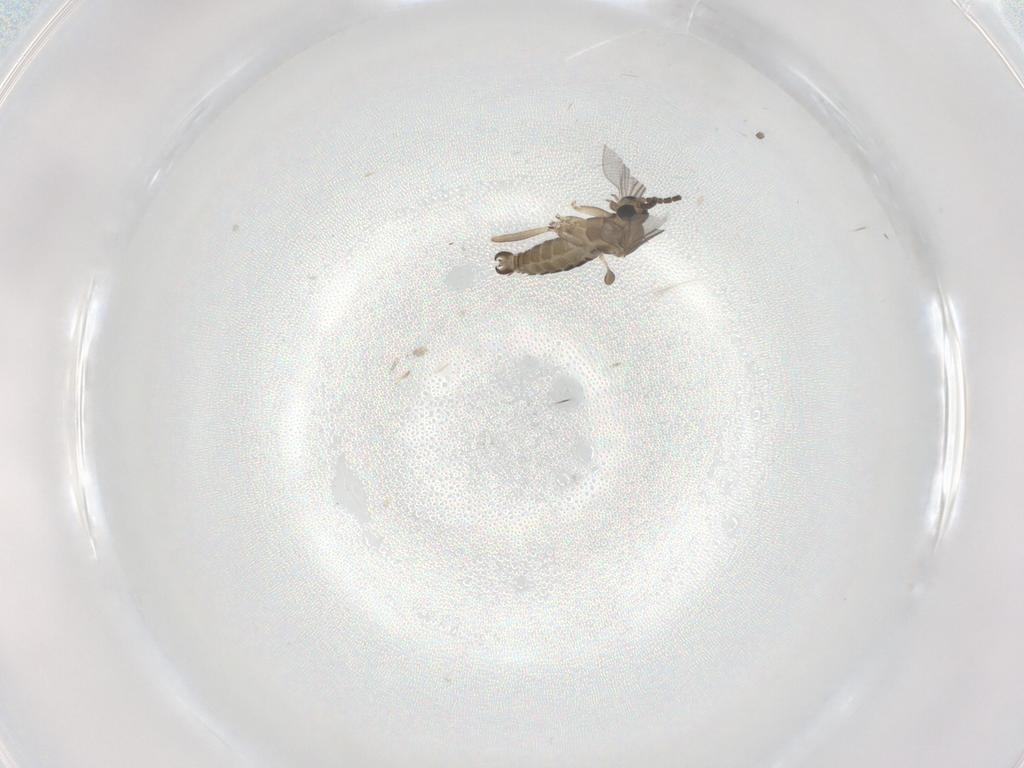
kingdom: Animalia
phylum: Arthropoda
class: Insecta
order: Diptera
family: Sciaridae
